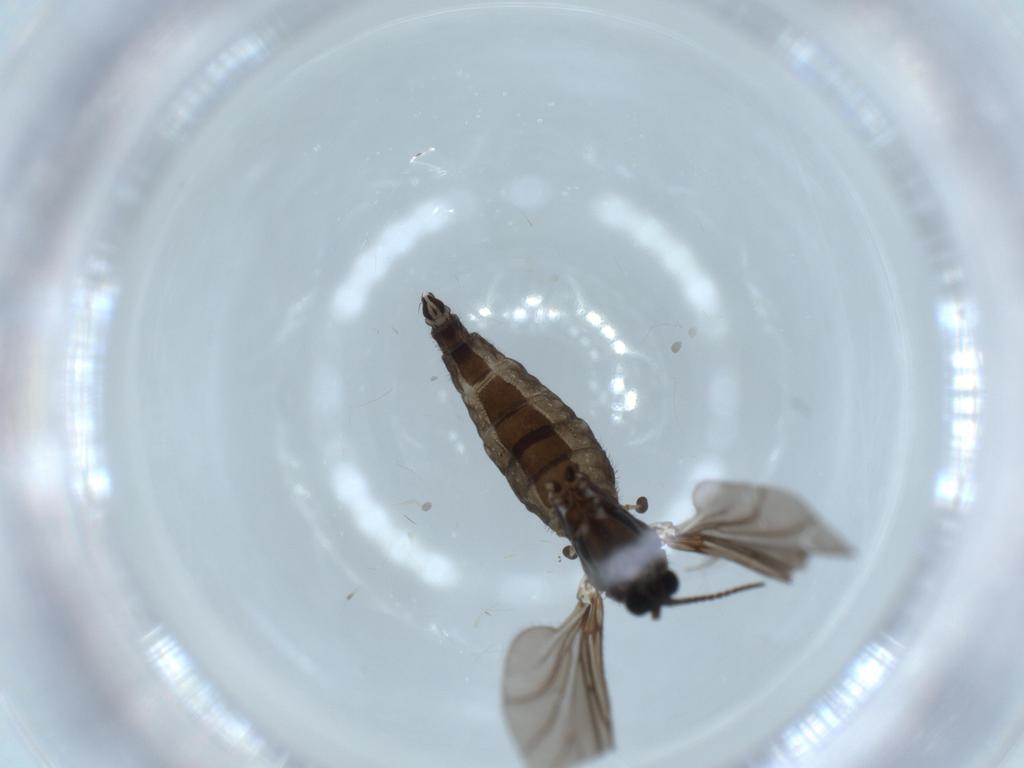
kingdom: Animalia
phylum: Arthropoda
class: Insecta
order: Diptera
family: Sciaridae
